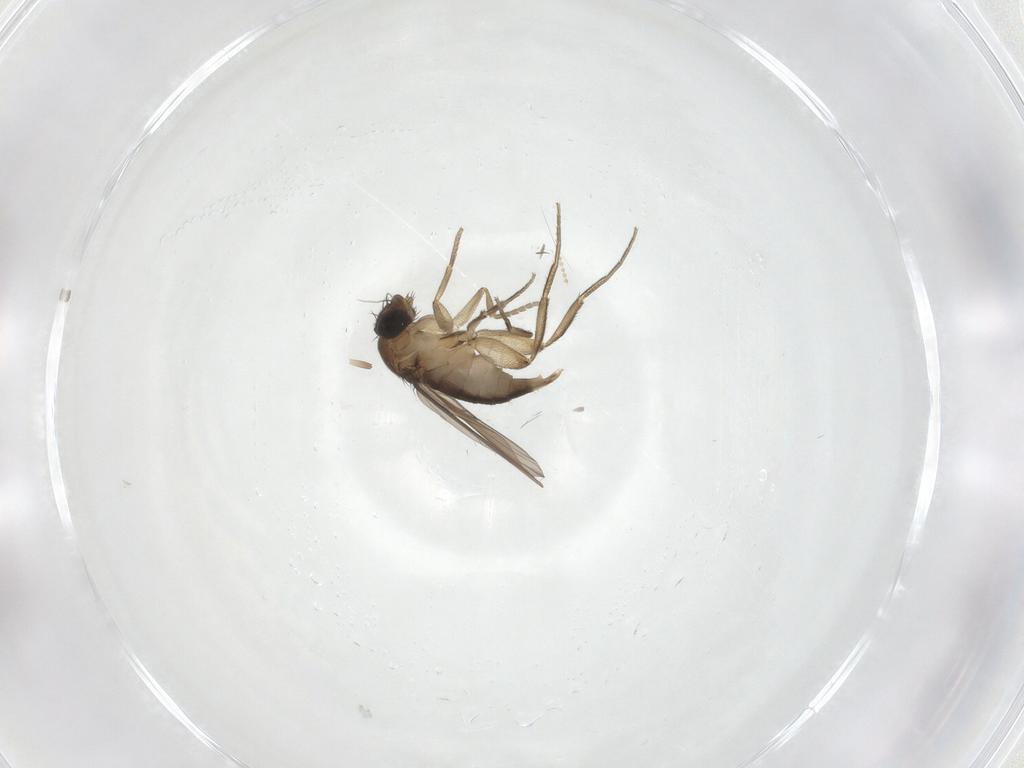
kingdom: Animalia
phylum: Arthropoda
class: Insecta
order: Diptera
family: Phoridae
